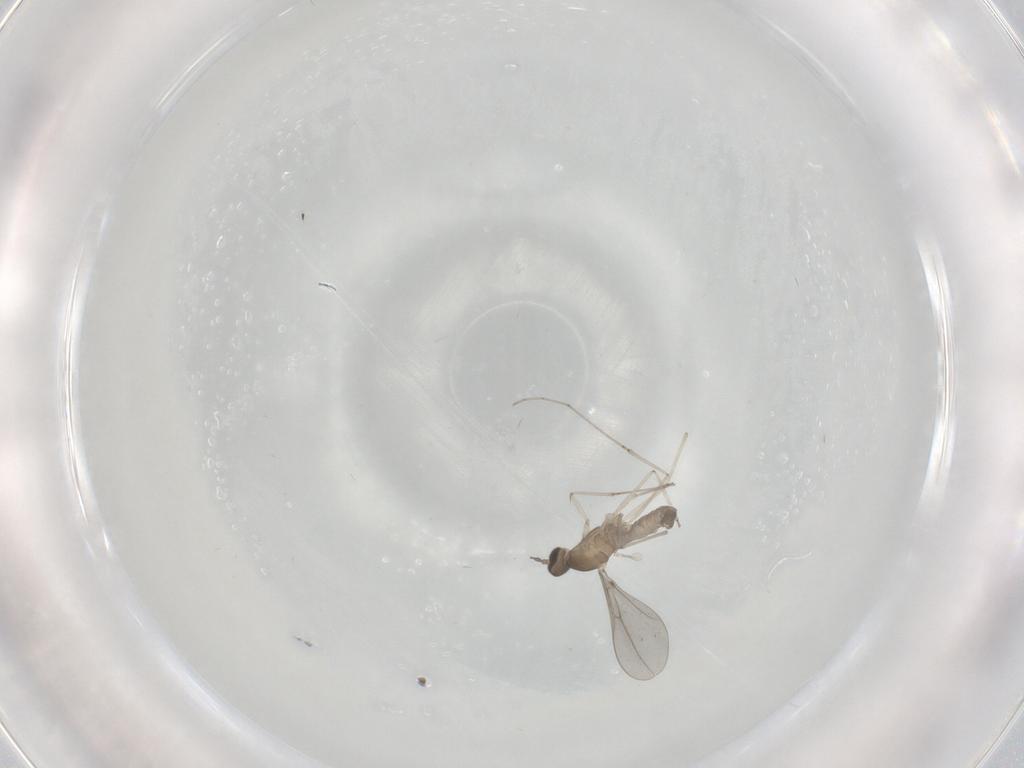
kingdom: Animalia
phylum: Arthropoda
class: Insecta
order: Diptera
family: Cecidomyiidae
